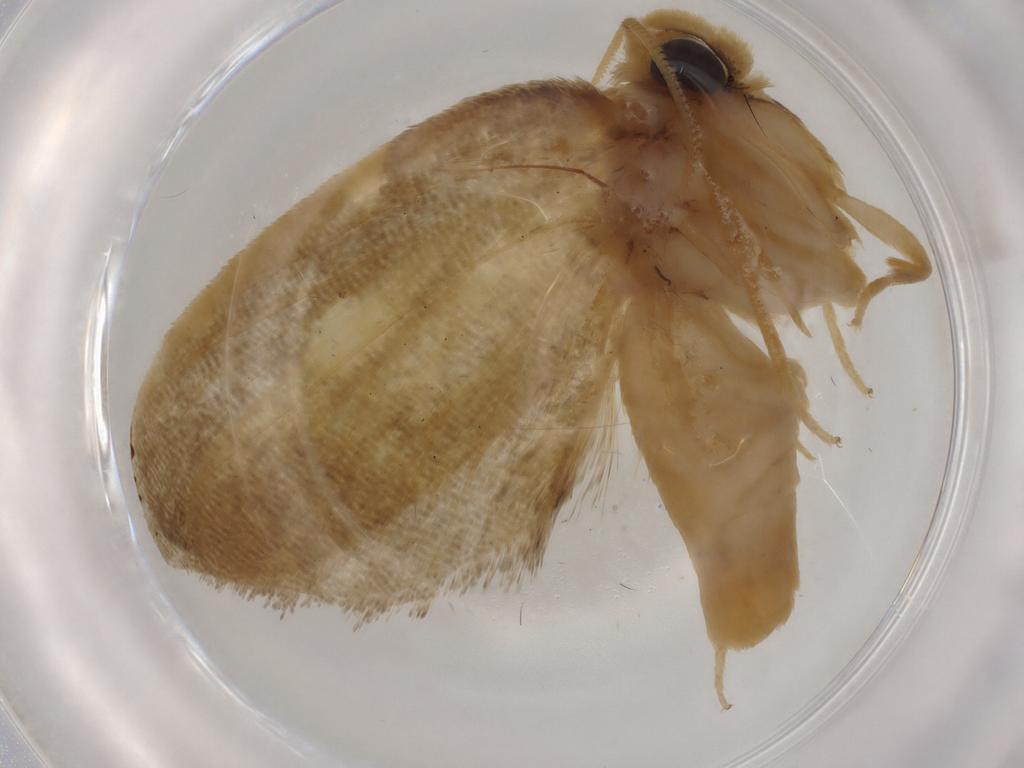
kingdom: Animalia
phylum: Arthropoda
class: Insecta
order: Lepidoptera
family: Psychidae
